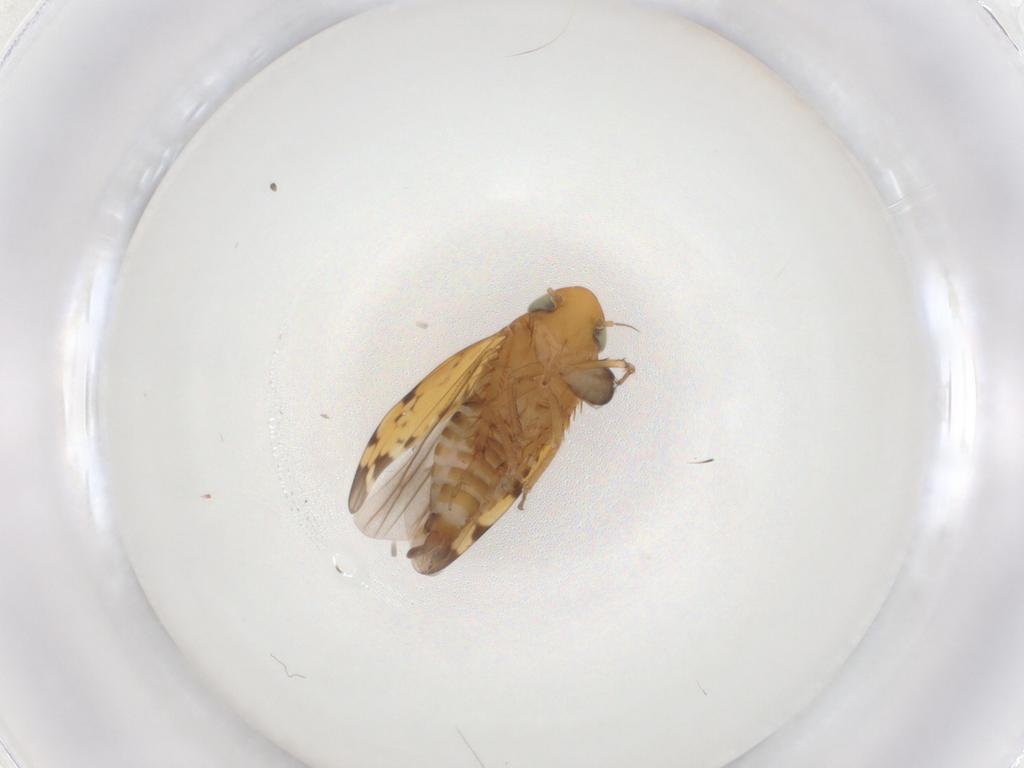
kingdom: Animalia
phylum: Arthropoda
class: Insecta
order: Hemiptera
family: Cicadellidae
